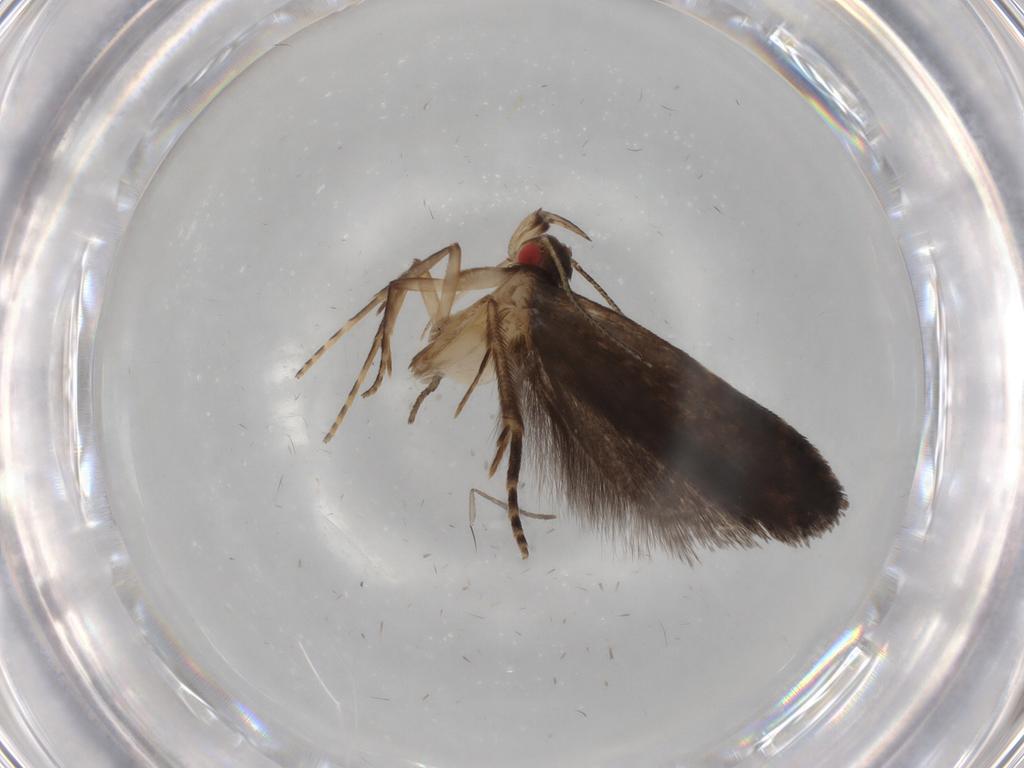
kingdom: Animalia
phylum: Arthropoda
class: Insecta
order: Lepidoptera
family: Gelechiidae
